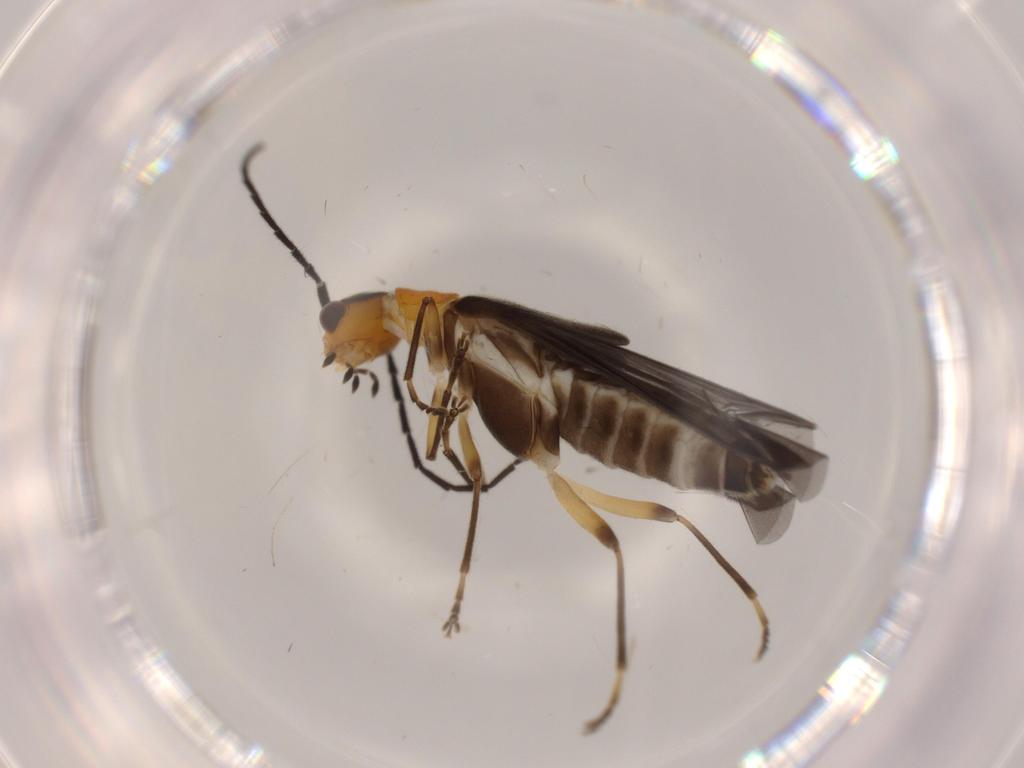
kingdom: Animalia
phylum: Arthropoda
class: Insecta
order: Coleoptera
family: Cantharidae
